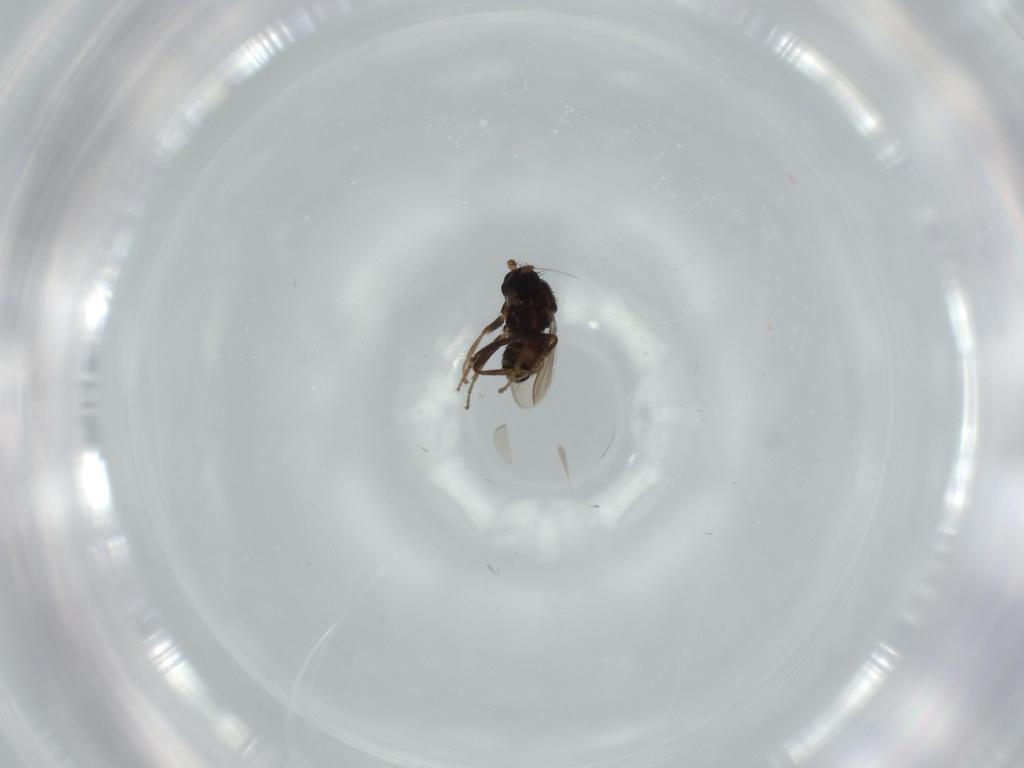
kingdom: Animalia
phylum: Arthropoda
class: Insecta
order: Diptera
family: Sphaeroceridae
